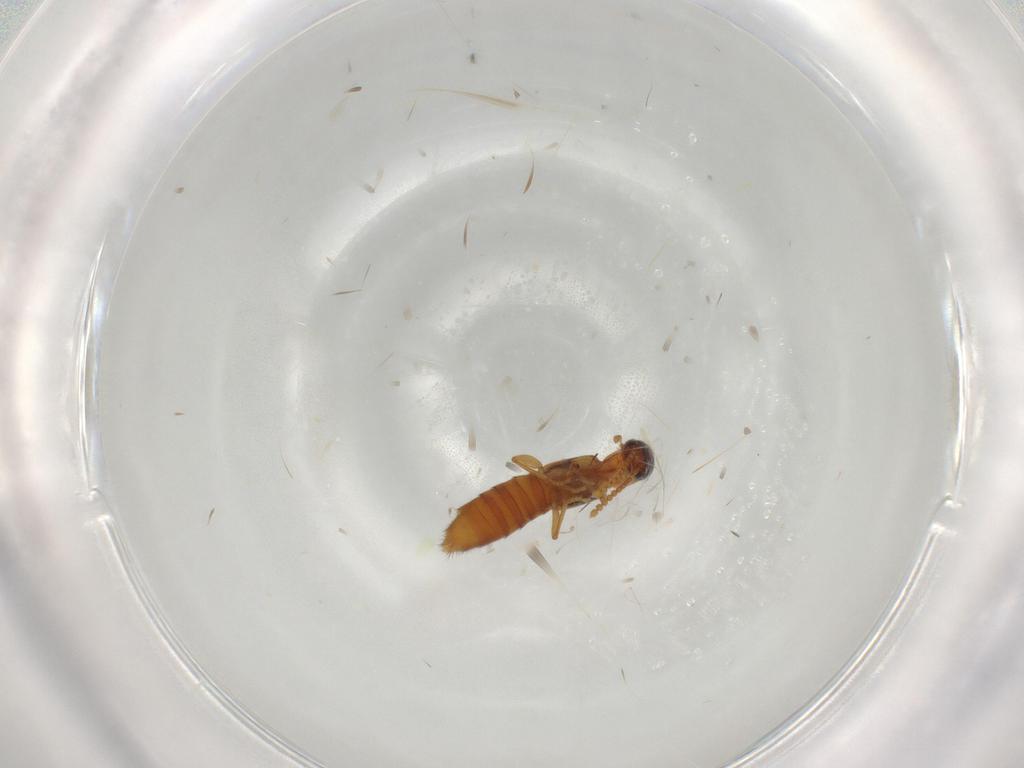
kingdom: Animalia
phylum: Arthropoda
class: Insecta
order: Coleoptera
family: Staphylinidae
